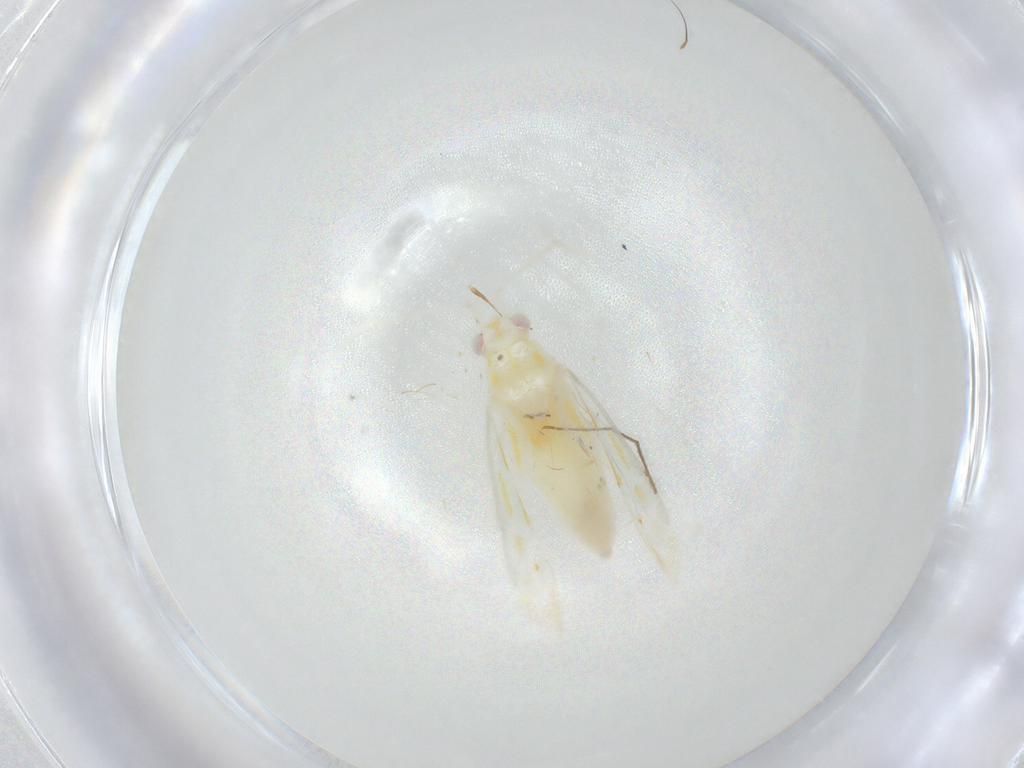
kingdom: Animalia
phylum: Arthropoda
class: Insecta
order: Hemiptera
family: Miridae
